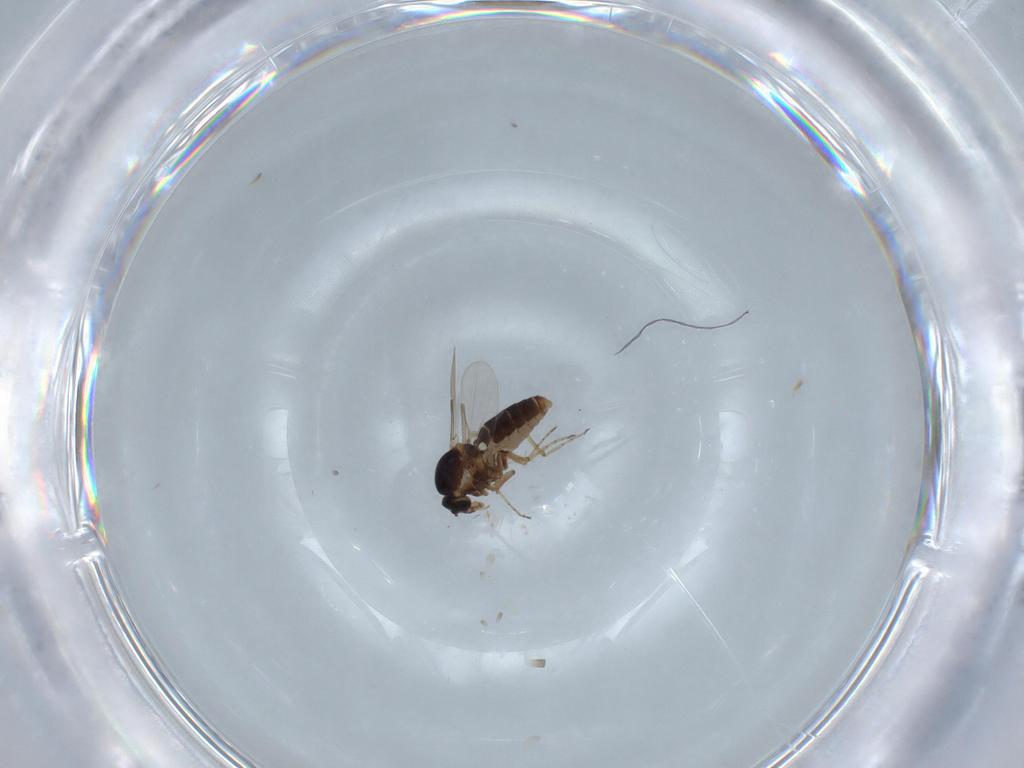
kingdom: Animalia
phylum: Arthropoda
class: Insecta
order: Diptera
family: Ceratopogonidae
